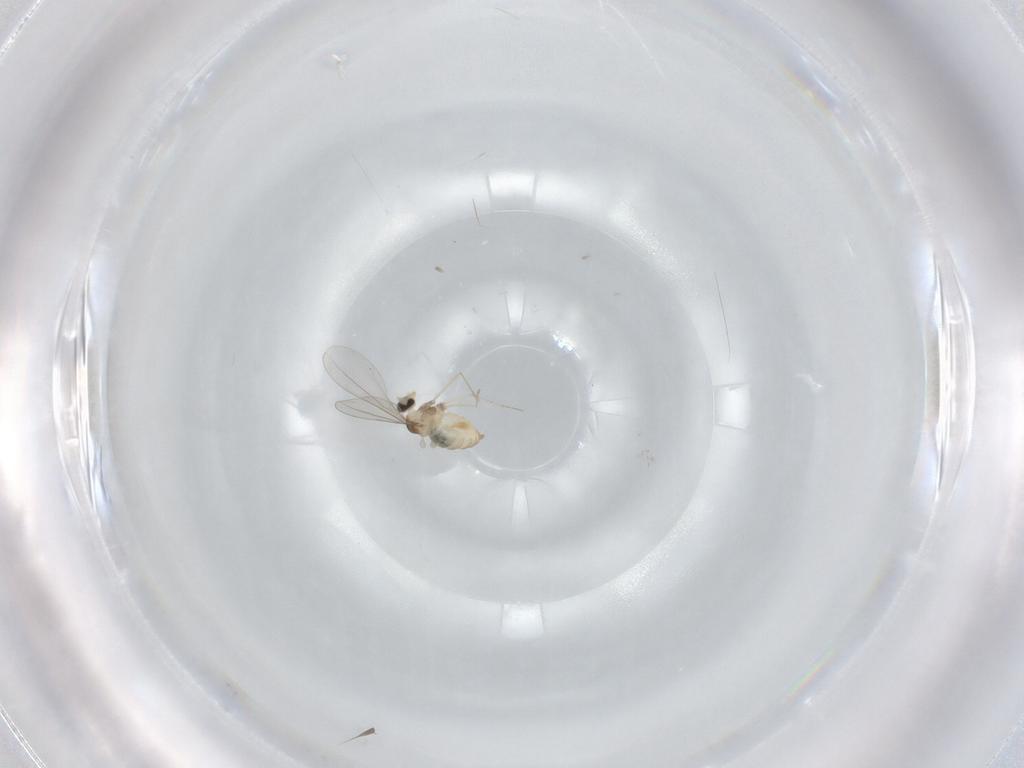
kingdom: Animalia
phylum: Arthropoda
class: Insecta
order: Diptera
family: Cecidomyiidae
